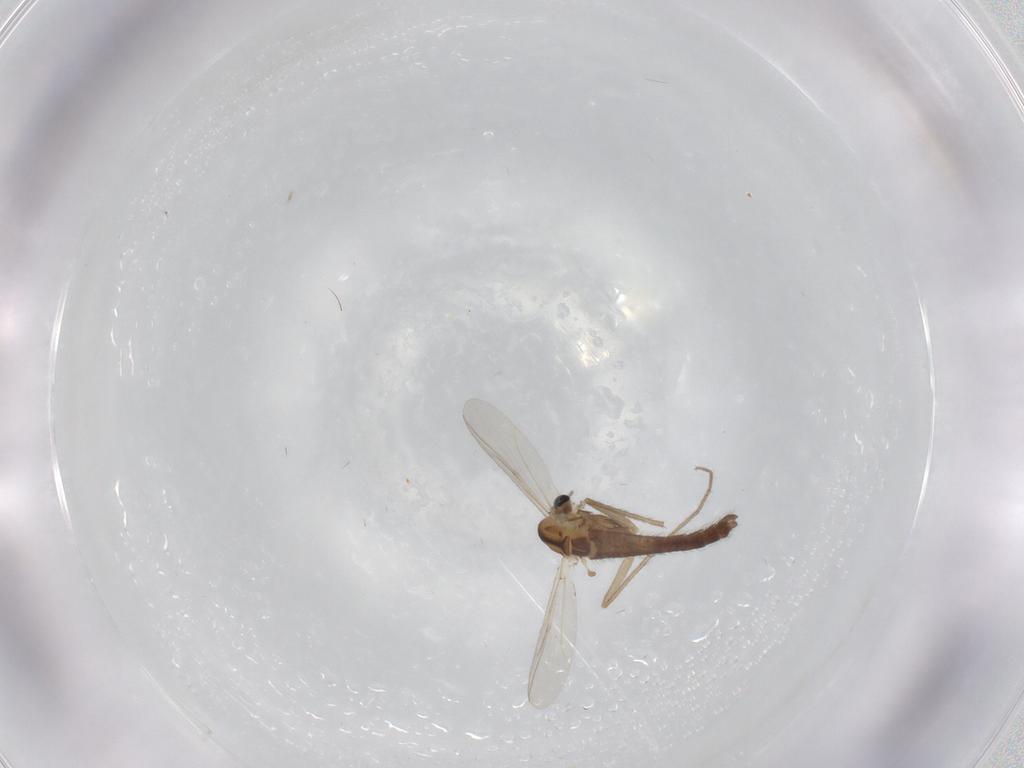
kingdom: Animalia
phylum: Arthropoda
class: Insecta
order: Diptera
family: Chironomidae
